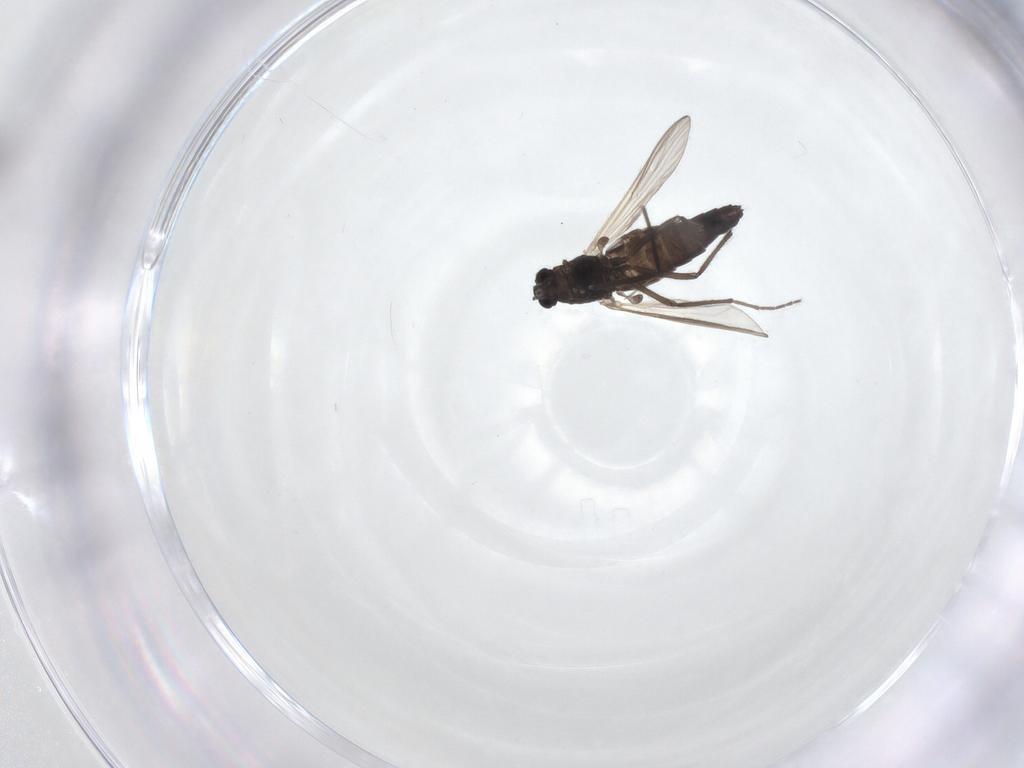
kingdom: Animalia
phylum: Arthropoda
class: Insecta
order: Diptera
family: Chironomidae
